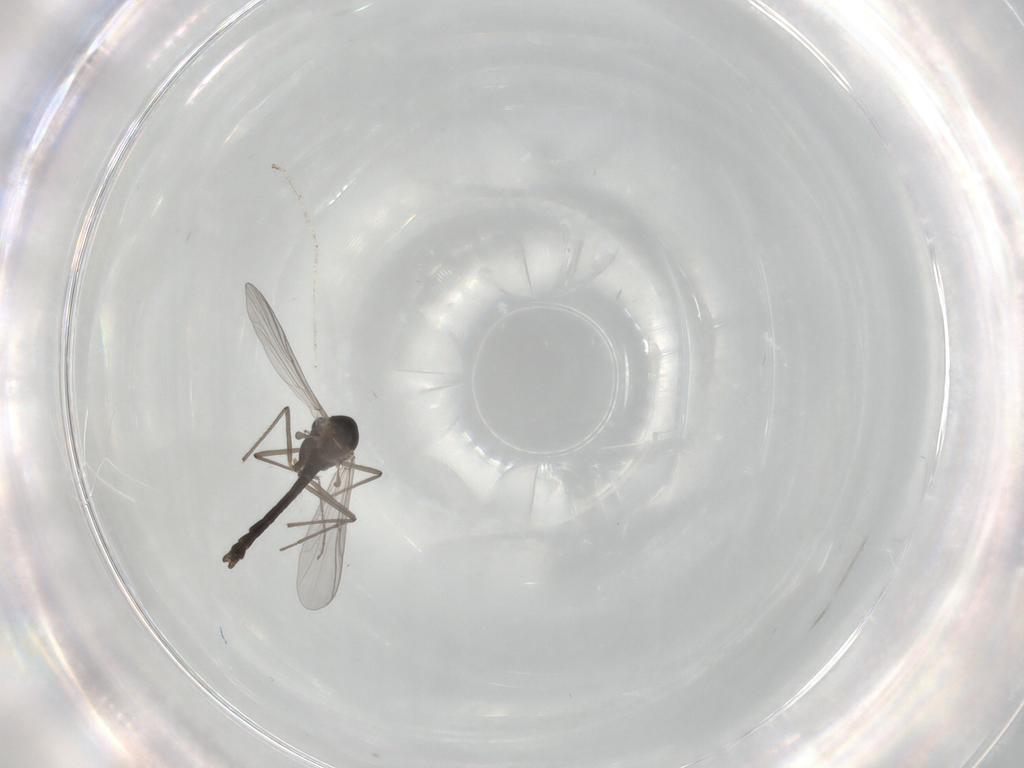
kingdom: Animalia
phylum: Arthropoda
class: Insecta
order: Diptera
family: Chironomidae
